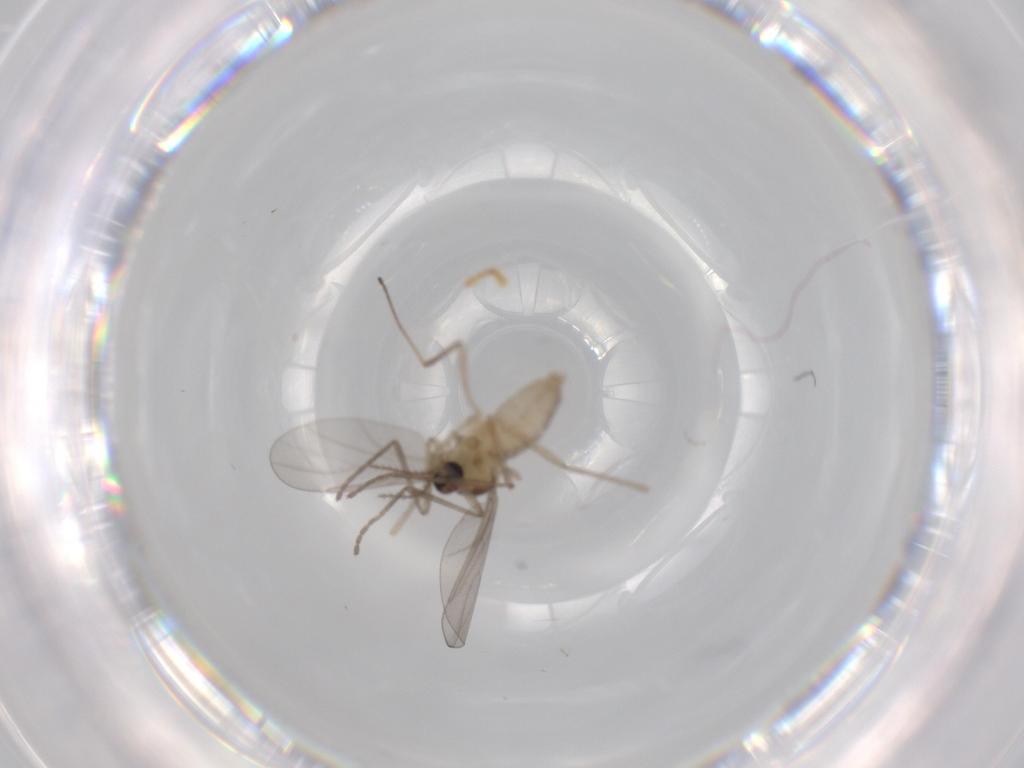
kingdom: Animalia
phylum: Arthropoda
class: Insecta
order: Diptera
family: Cecidomyiidae
